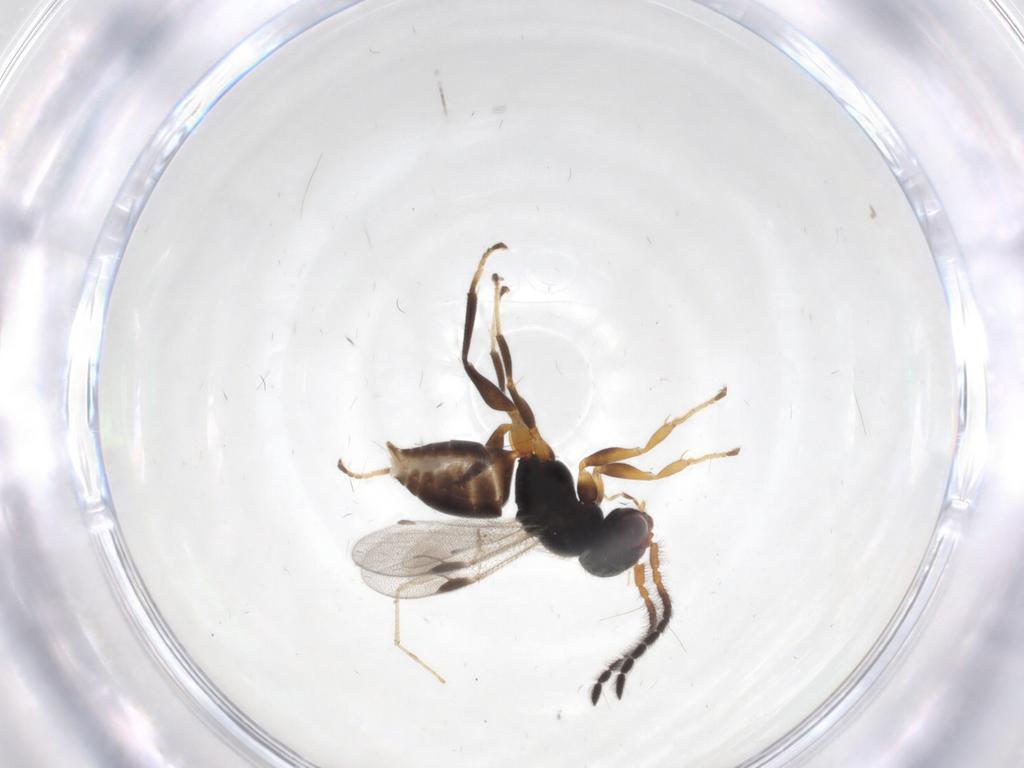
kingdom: Animalia
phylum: Arthropoda
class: Insecta
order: Hymenoptera
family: Dryinidae
